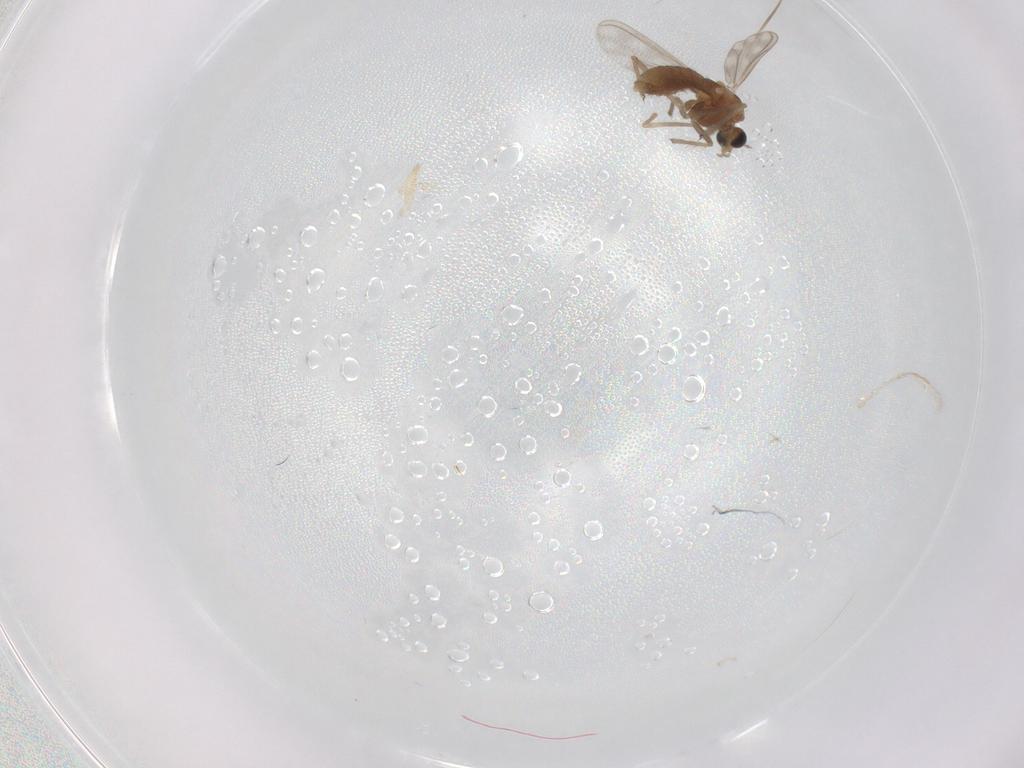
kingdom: Animalia
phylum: Arthropoda
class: Insecta
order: Diptera
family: Chironomidae
